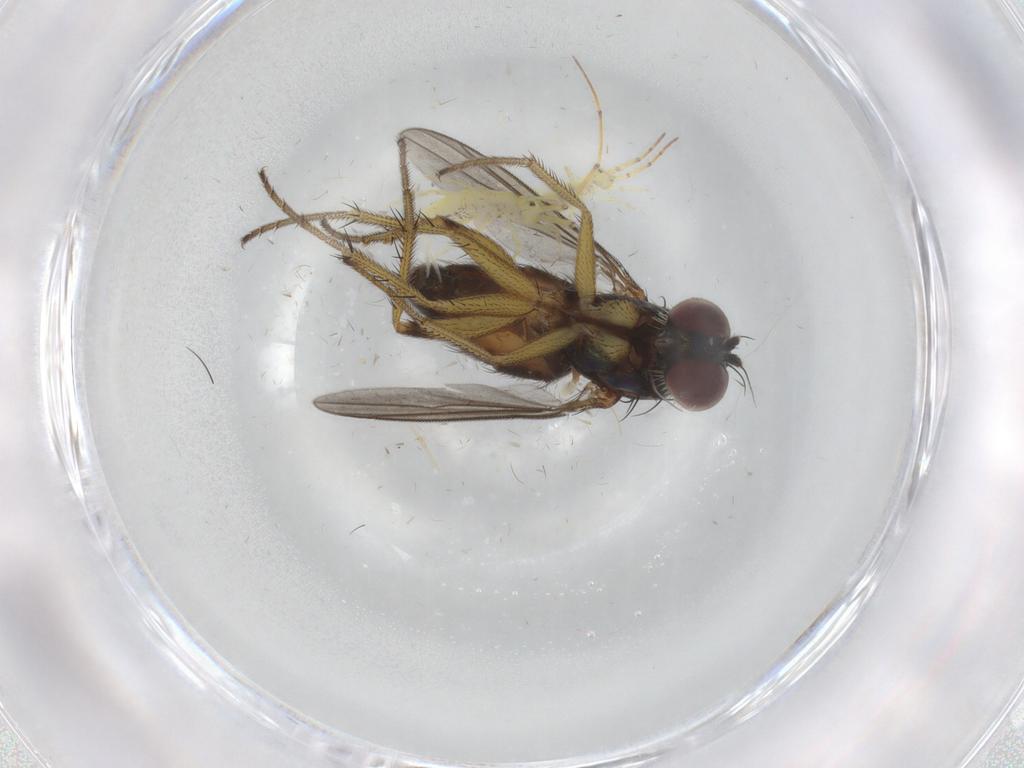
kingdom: Animalia
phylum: Arthropoda
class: Insecta
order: Diptera
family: Dolichopodidae
